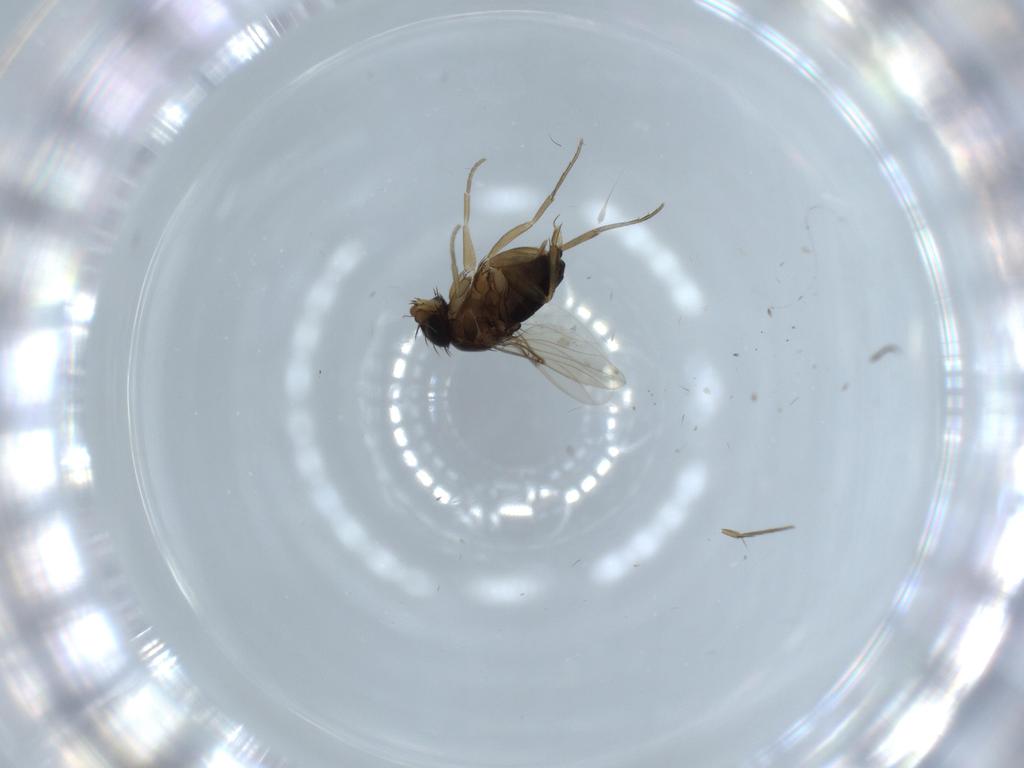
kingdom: Animalia
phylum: Arthropoda
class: Insecta
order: Diptera
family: Phoridae
